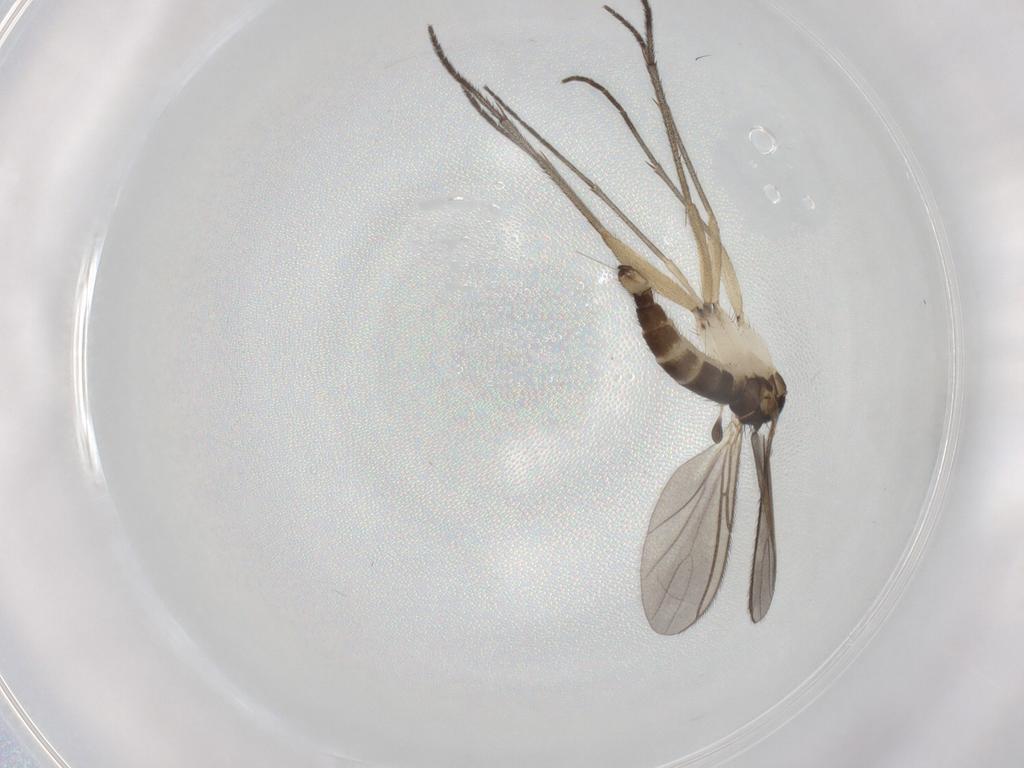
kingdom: Animalia
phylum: Arthropoda
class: Insecta
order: Diptera
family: Sciaridae
